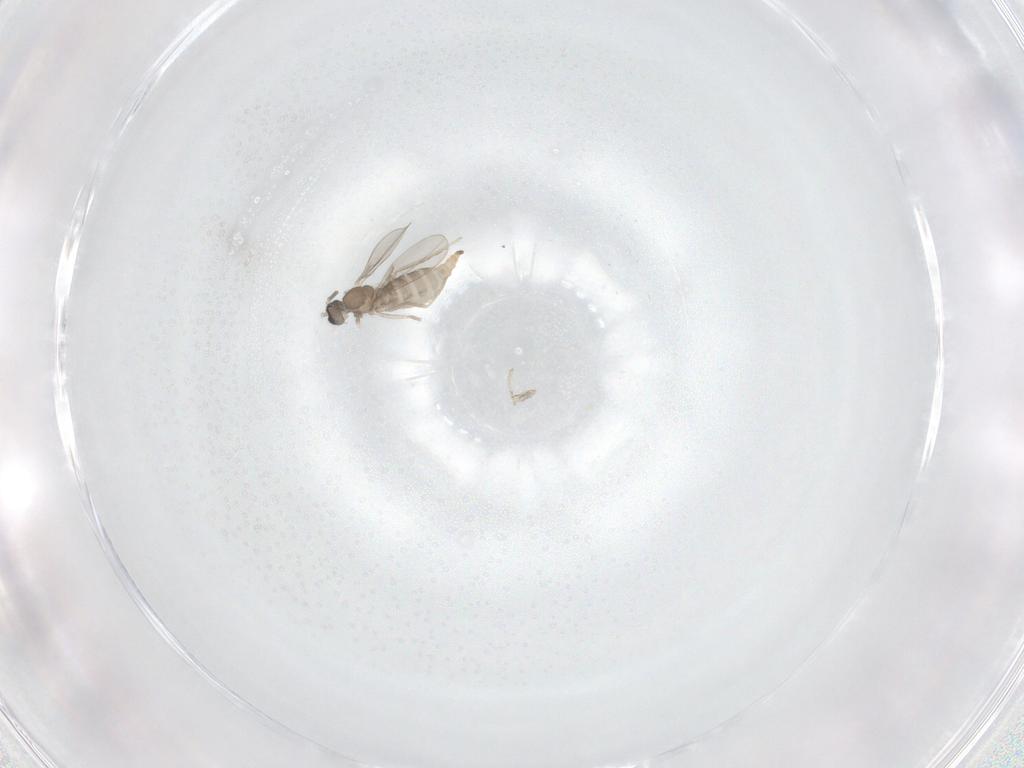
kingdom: Animalia
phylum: Arthropoda
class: Insecta
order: Diptera
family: Cecidomyiidae
